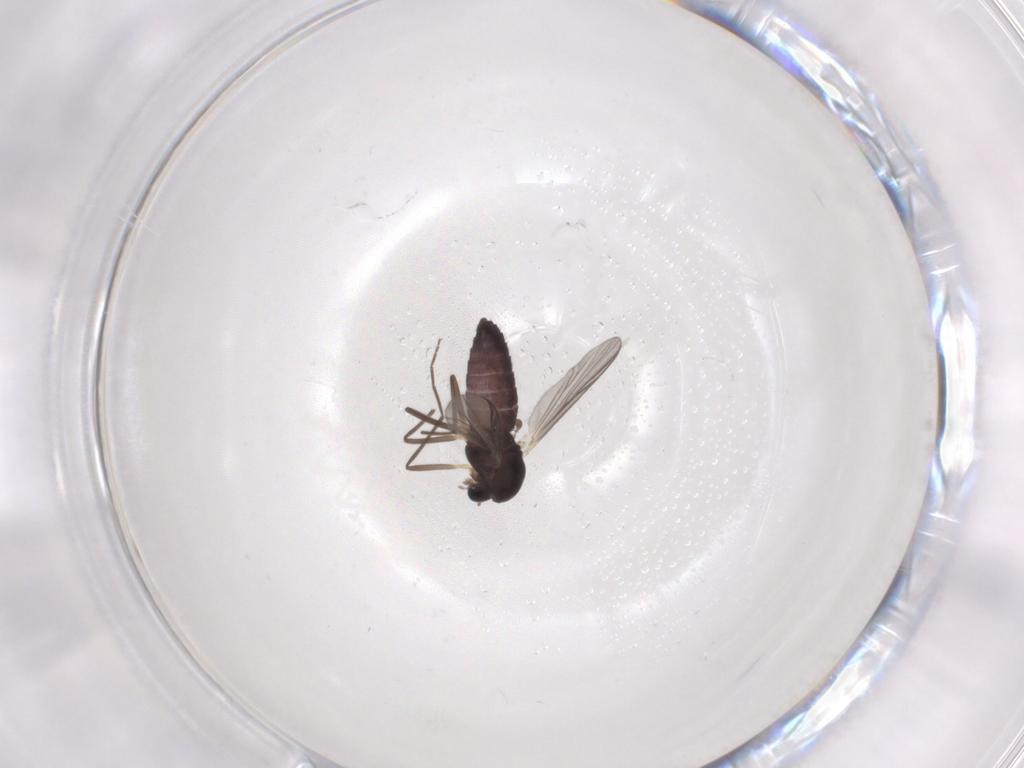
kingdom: Animalia
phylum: Arthropoda
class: Insecta
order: Diptera
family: Chironomidae
